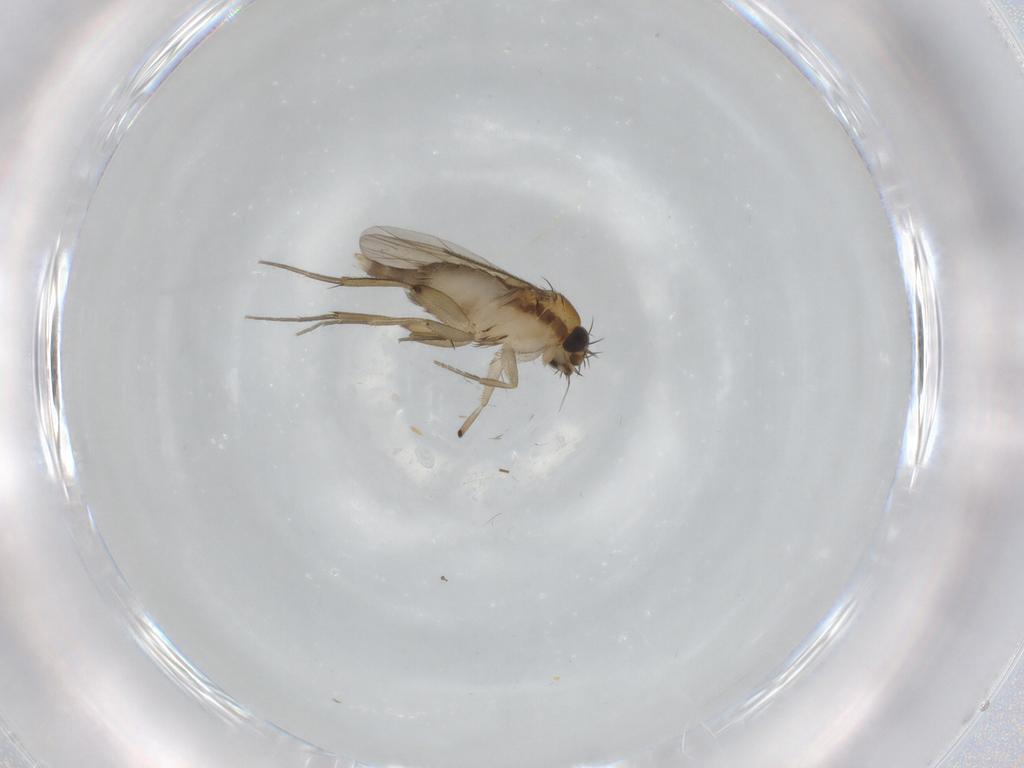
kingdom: Animalia
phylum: Arthropoda
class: Insecta
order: Diptera
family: Phoridae
